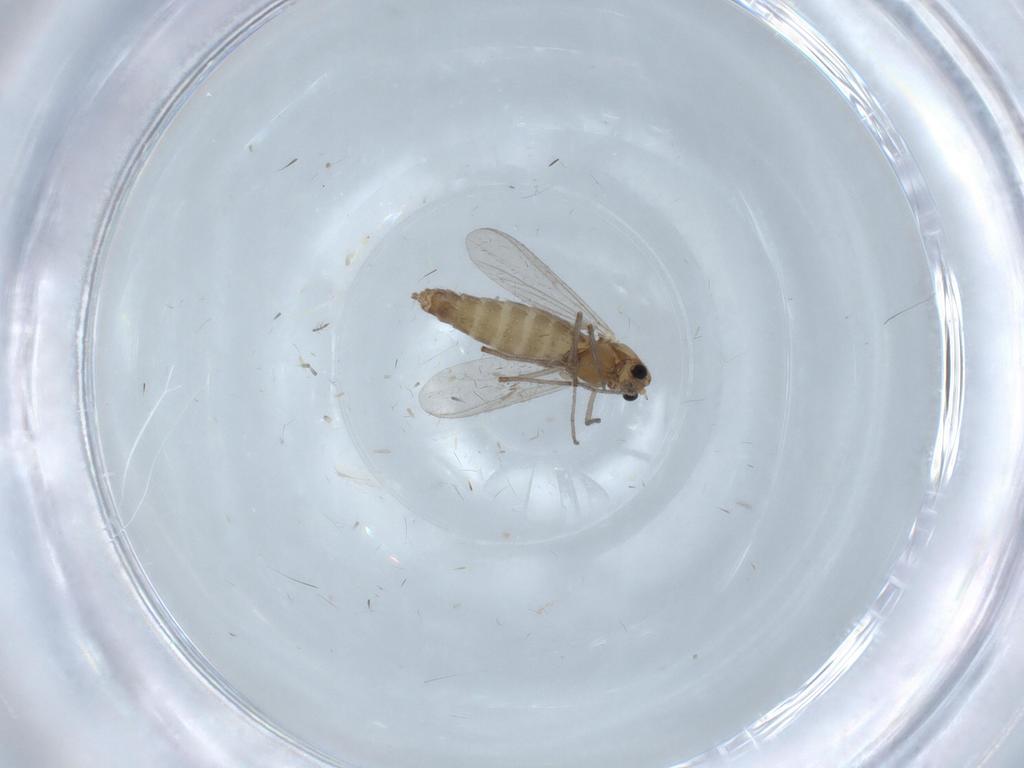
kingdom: Animalia
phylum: Arthropoda
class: Insecta
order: Diptera
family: Chironomidae
